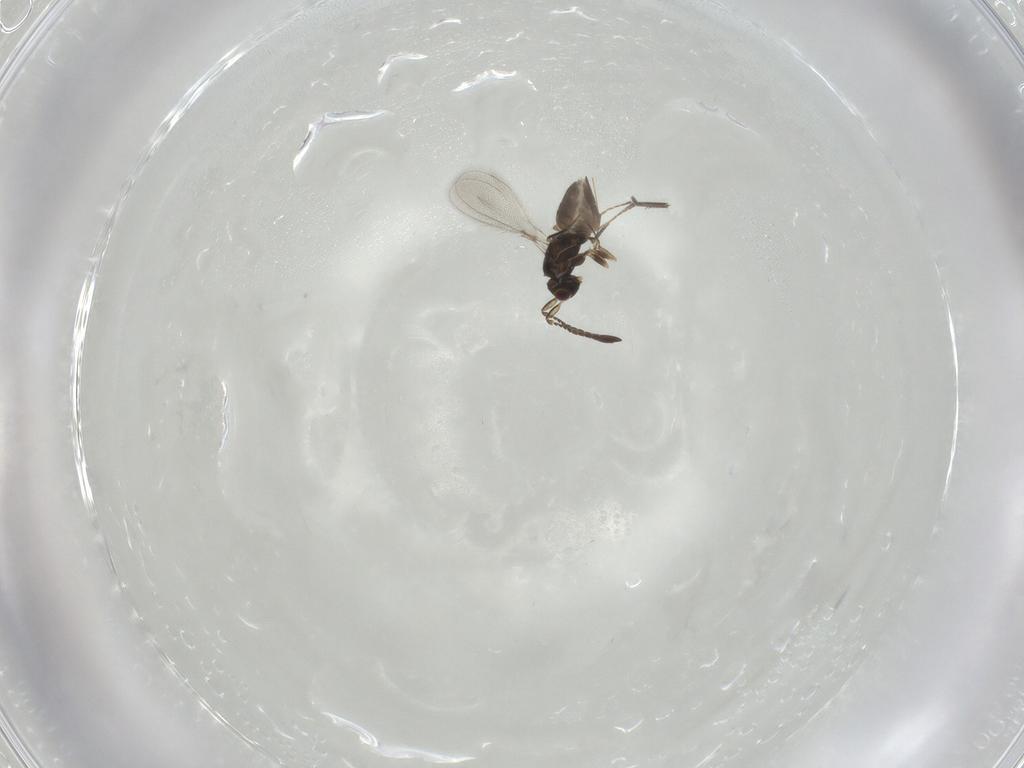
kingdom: Animalia
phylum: Arthropoda
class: Insecta
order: Hymenoptera
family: Mymaridae
